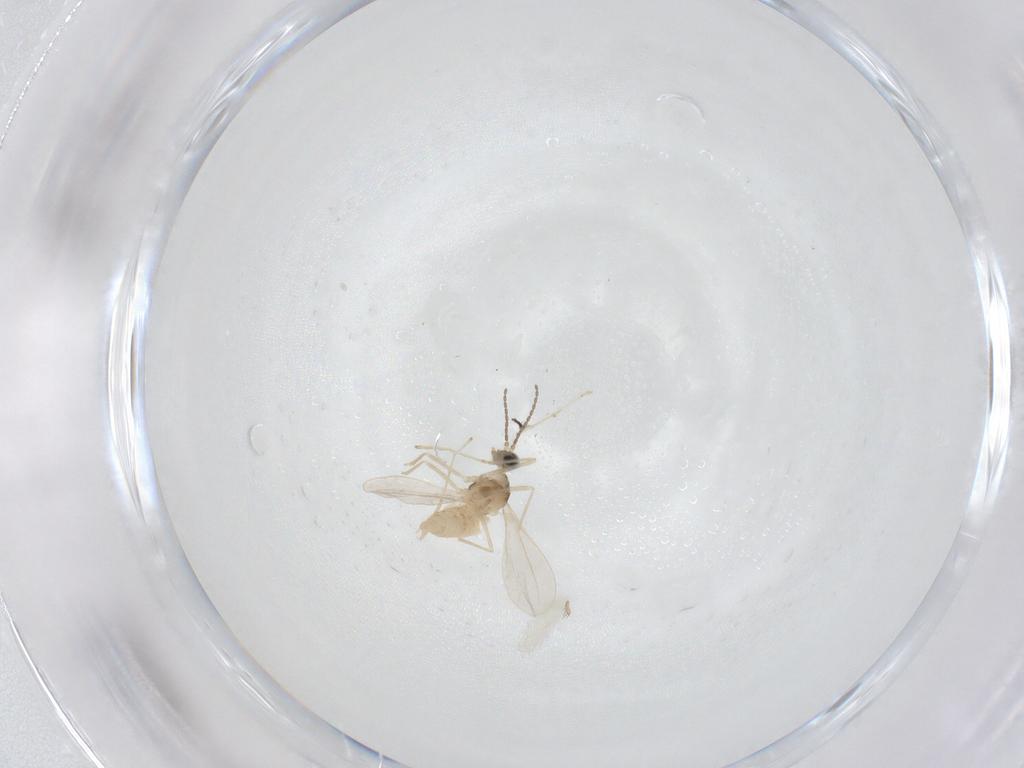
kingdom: Animalia
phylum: Arthropoda
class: Insecta
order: Diptera
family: Cecidomyiidae
